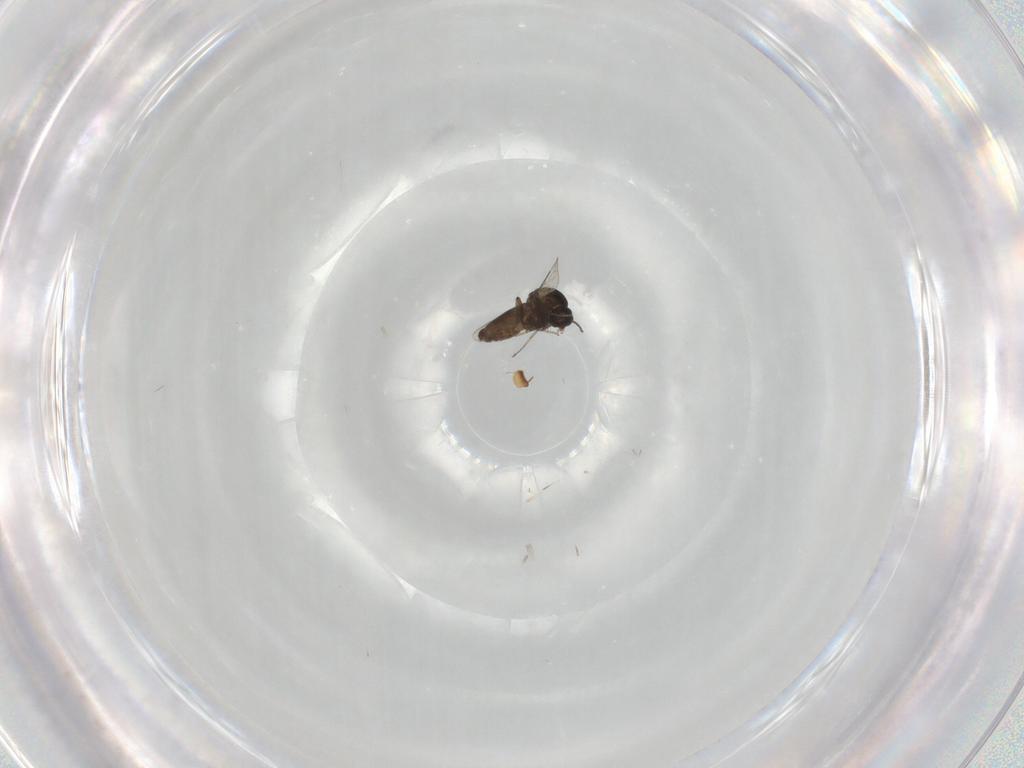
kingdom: Animalia
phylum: Arthropoda
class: Insecta
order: Diptera
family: Ceratopogonidae
